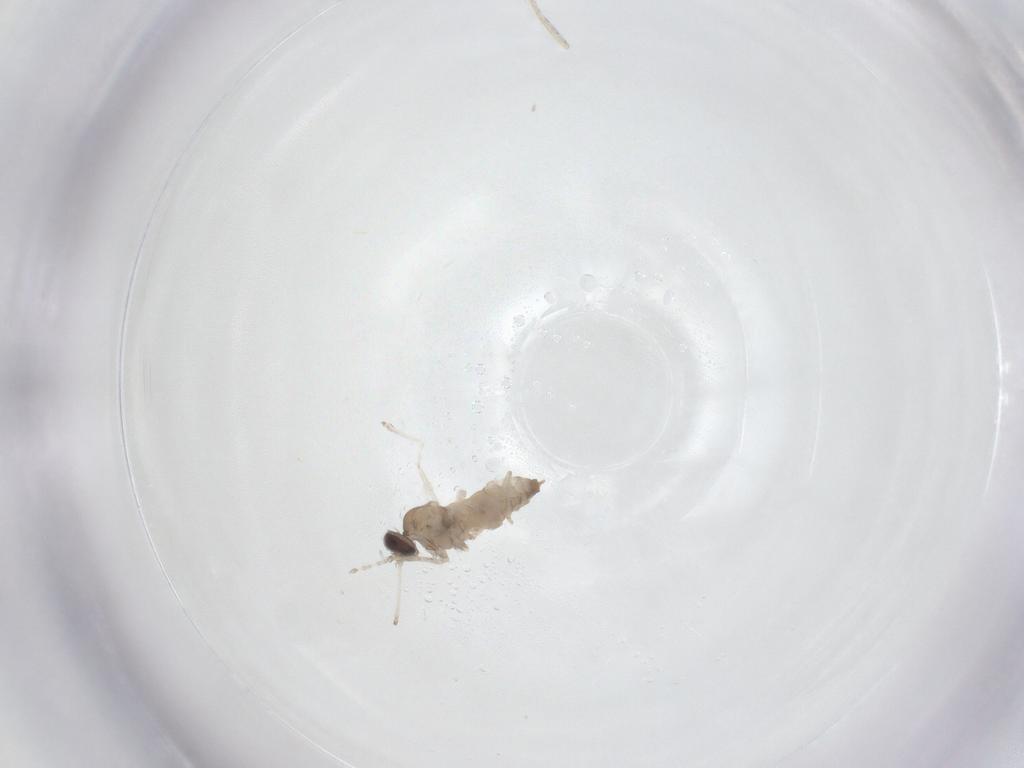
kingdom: Animalia
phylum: Arthropoda
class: Insecta
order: Diptera
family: Cecidomyiidae
